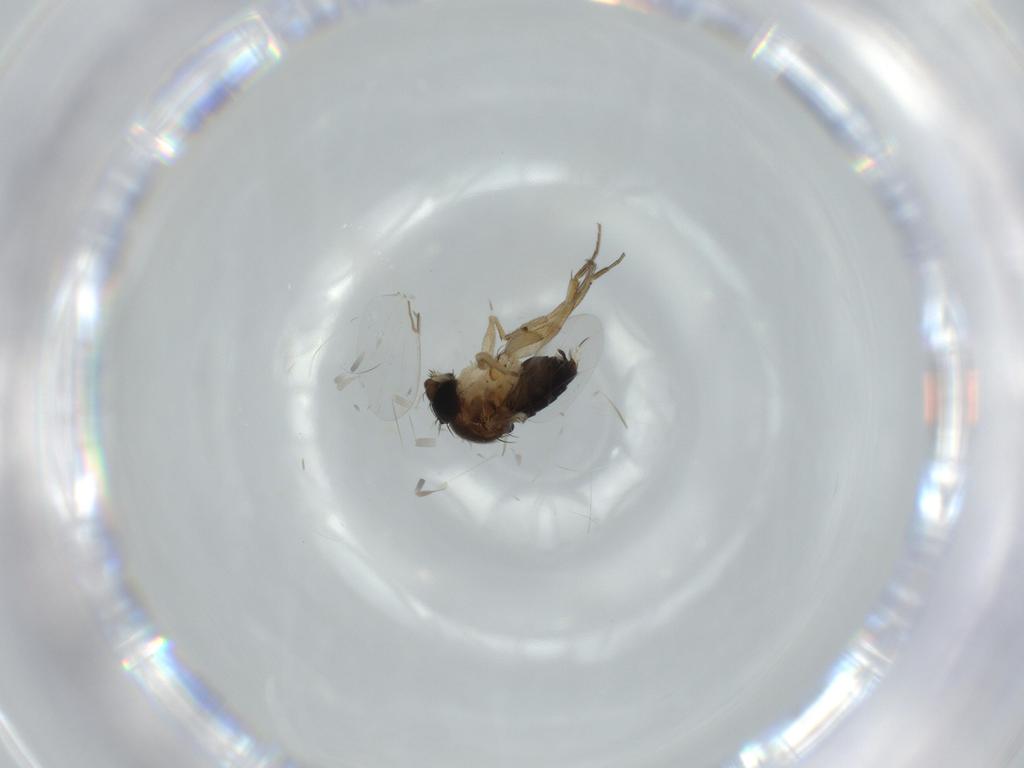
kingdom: Animalia
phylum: Arthropoda
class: Insecta
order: Diptera
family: Phoridae
